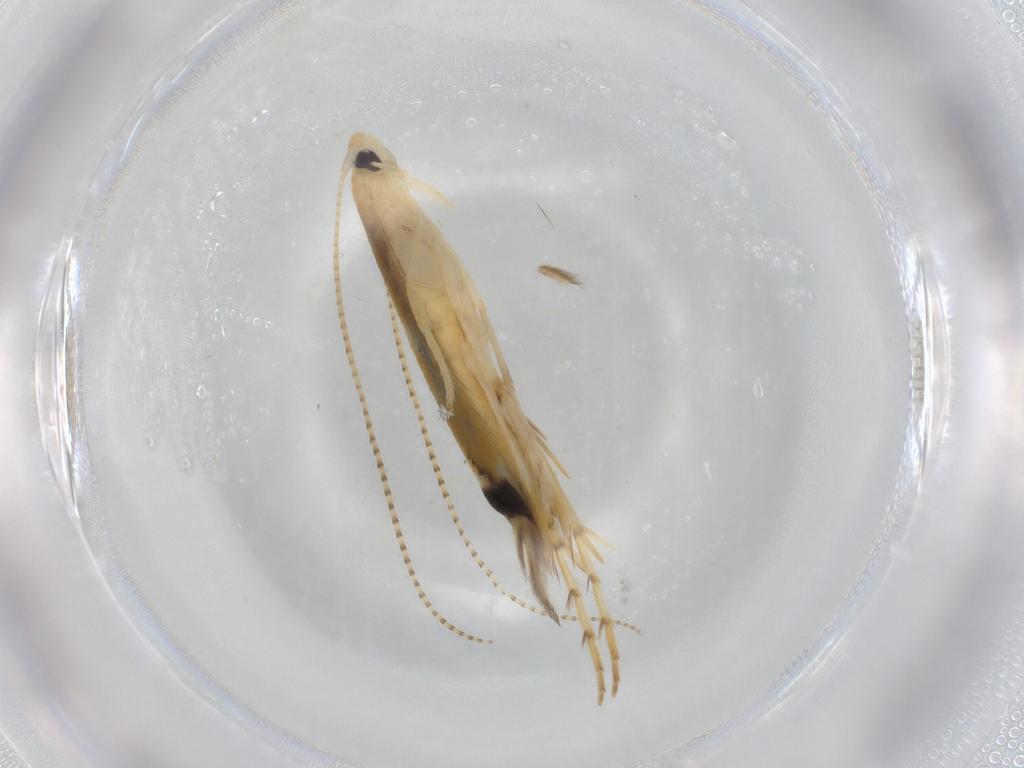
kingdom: Animalia
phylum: Arthropoda
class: Insecta
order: Lepidoptera
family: Lyonetiidae
